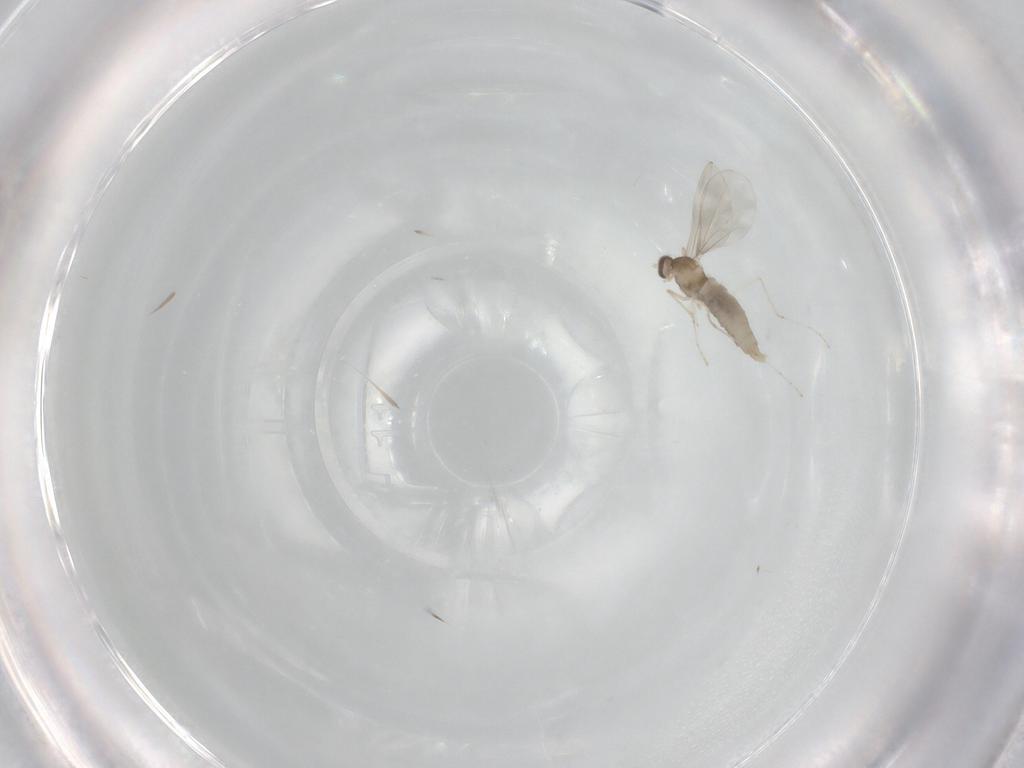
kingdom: Animalia
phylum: Arthropoda
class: Insecta
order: Diptera
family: Cecidomyiidae
